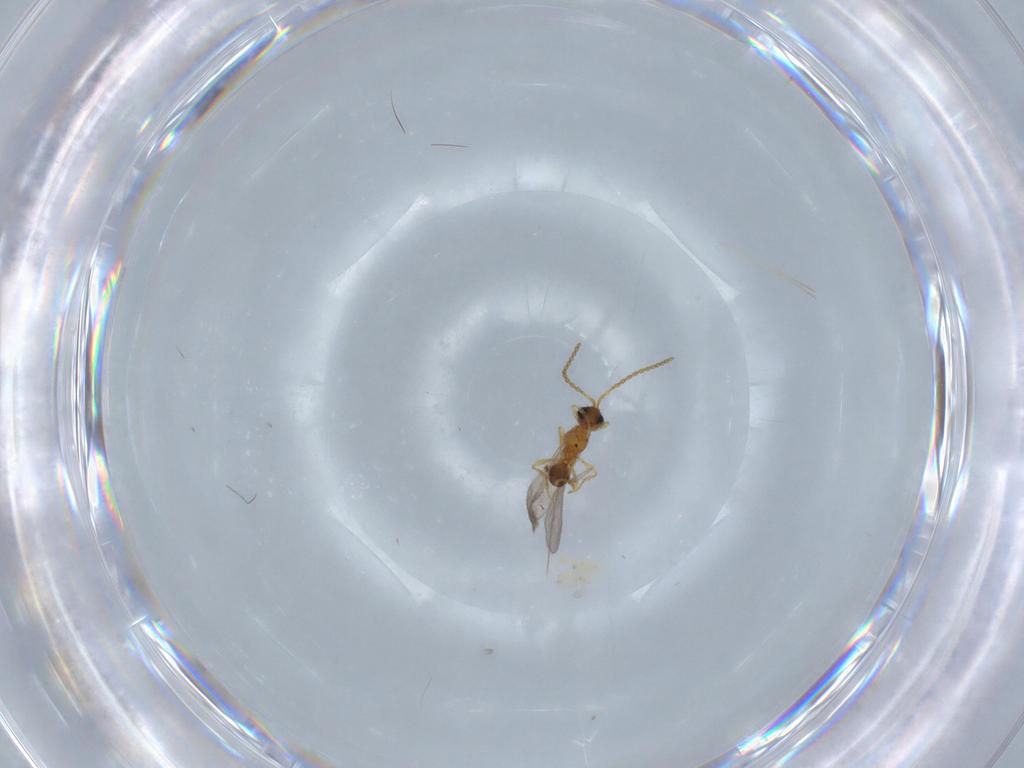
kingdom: Animalia
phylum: Arthropoda
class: Insecta
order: Hymenoptera
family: Diapriidae
